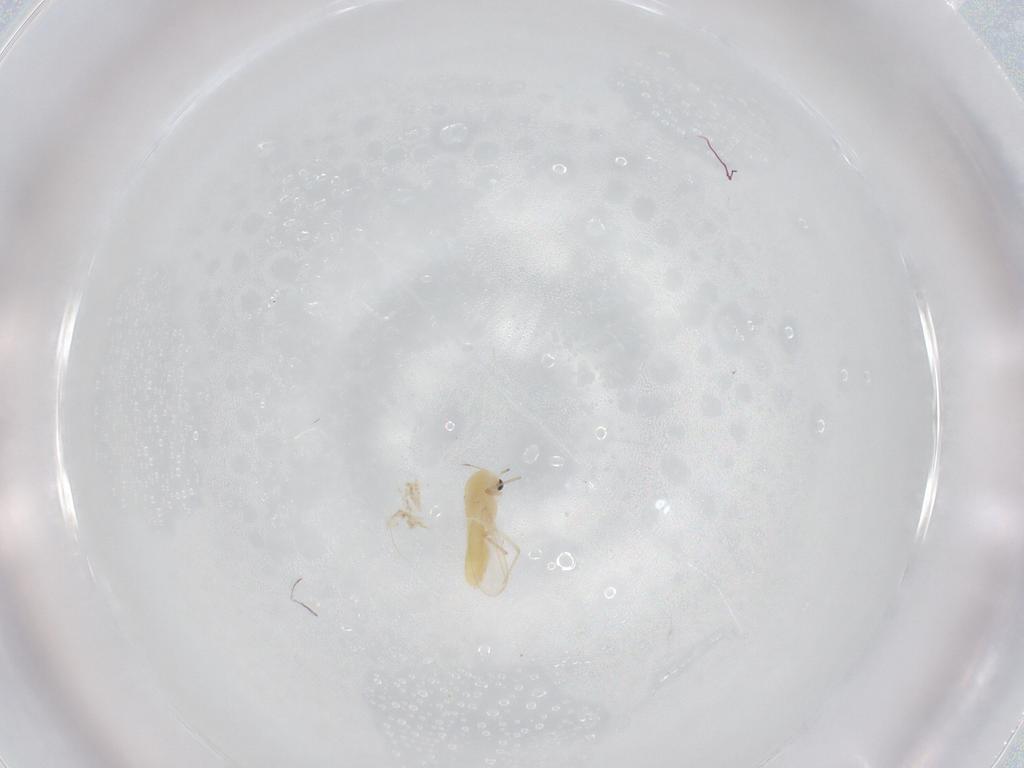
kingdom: Animalia
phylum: Arthropoda
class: Insecta
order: Diptera
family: Chironomidae
